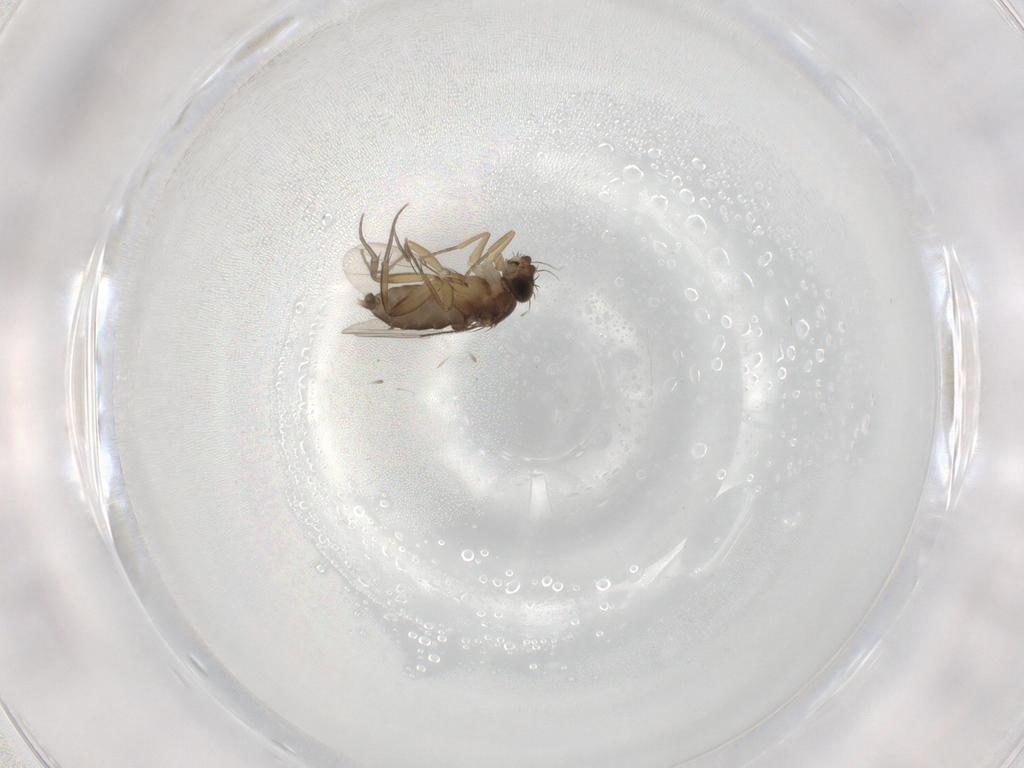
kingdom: Animalia
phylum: Arthropoda
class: Insecta
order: Diptera
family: Phoridae
